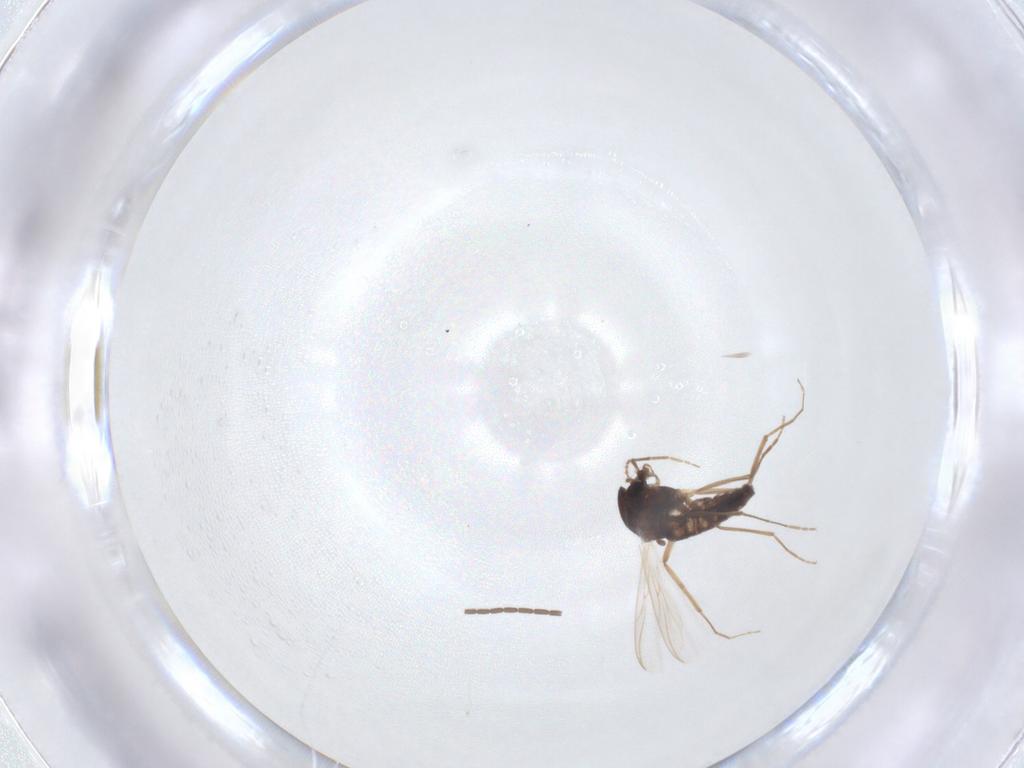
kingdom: Animalia
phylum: Arthropoda
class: Insecta
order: Diptera
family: Chironomidae
